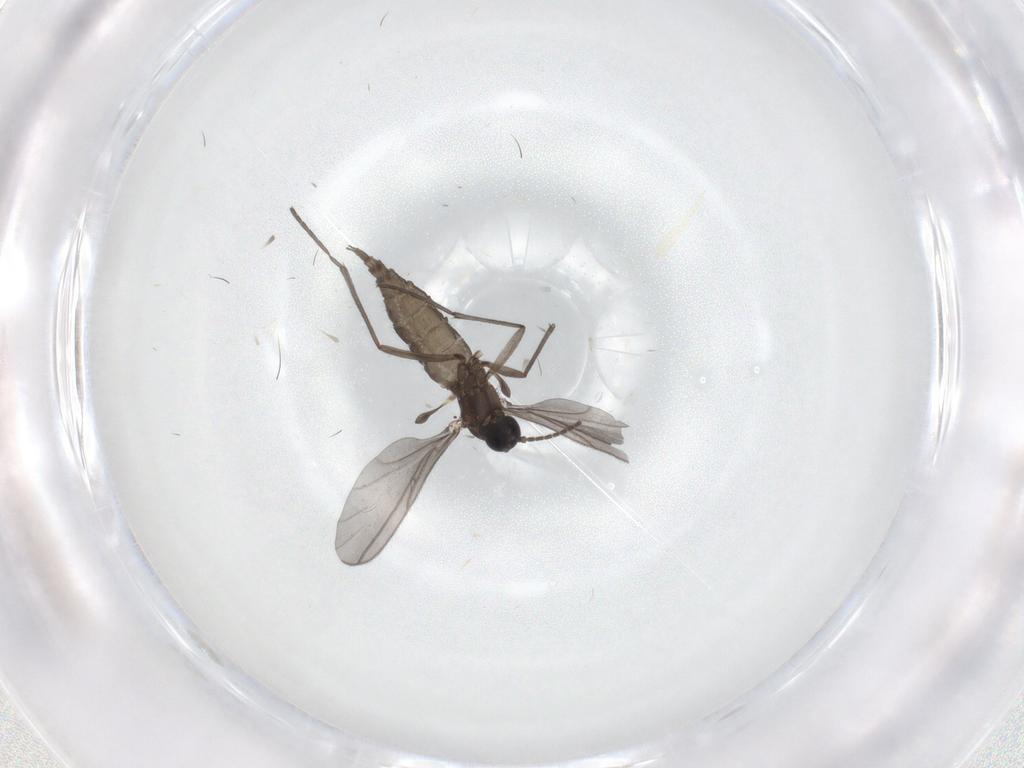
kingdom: Animalia
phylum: Arthropoda
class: Insecta
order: Diptera
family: Sciaridae
